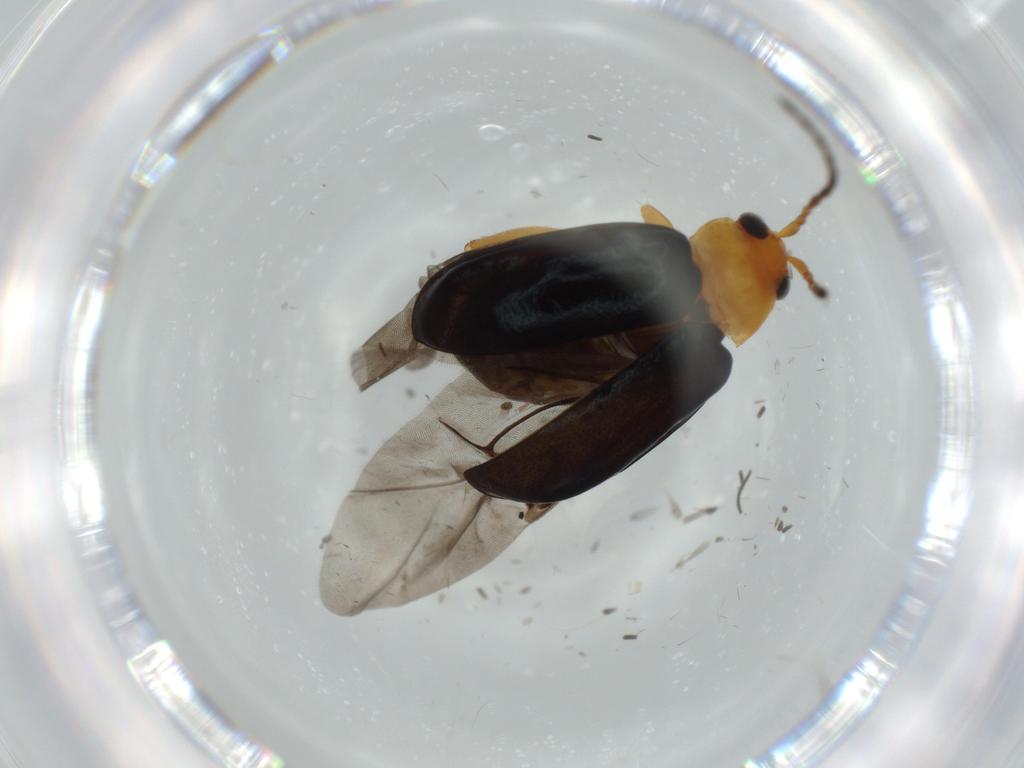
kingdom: Animalia
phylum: Arthropoda
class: Insecta
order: Coleoptera
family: Chrysomelidae
